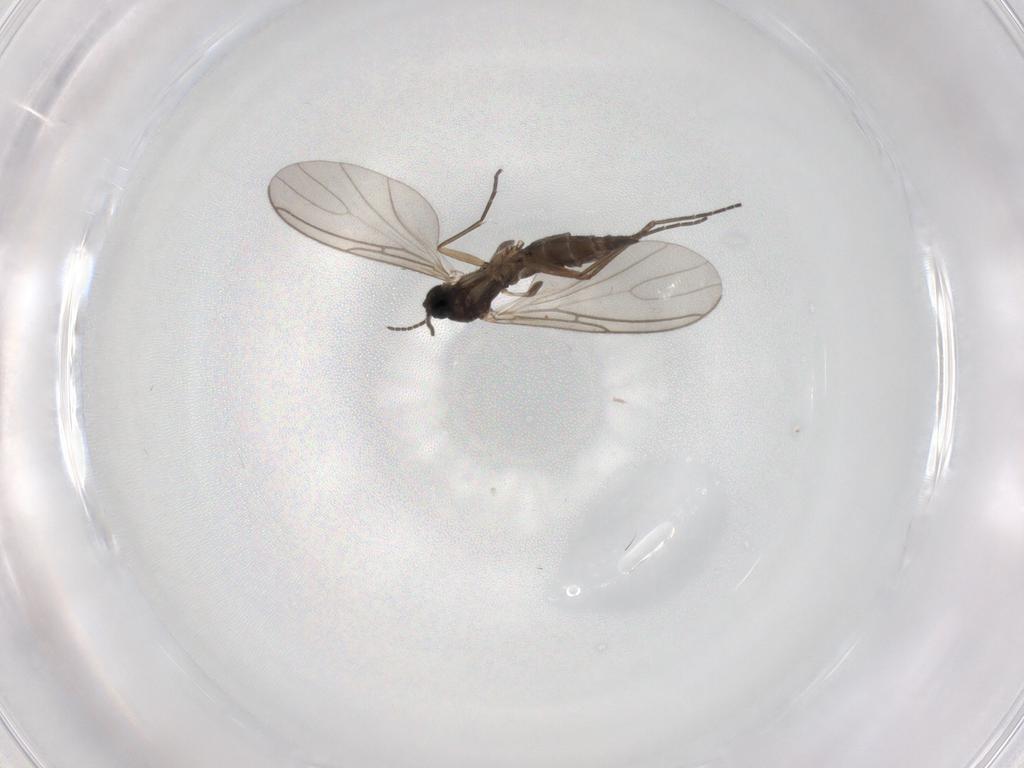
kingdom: Animalia
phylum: Arthropoda
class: Insecta
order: Diptera
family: Sciaridae
